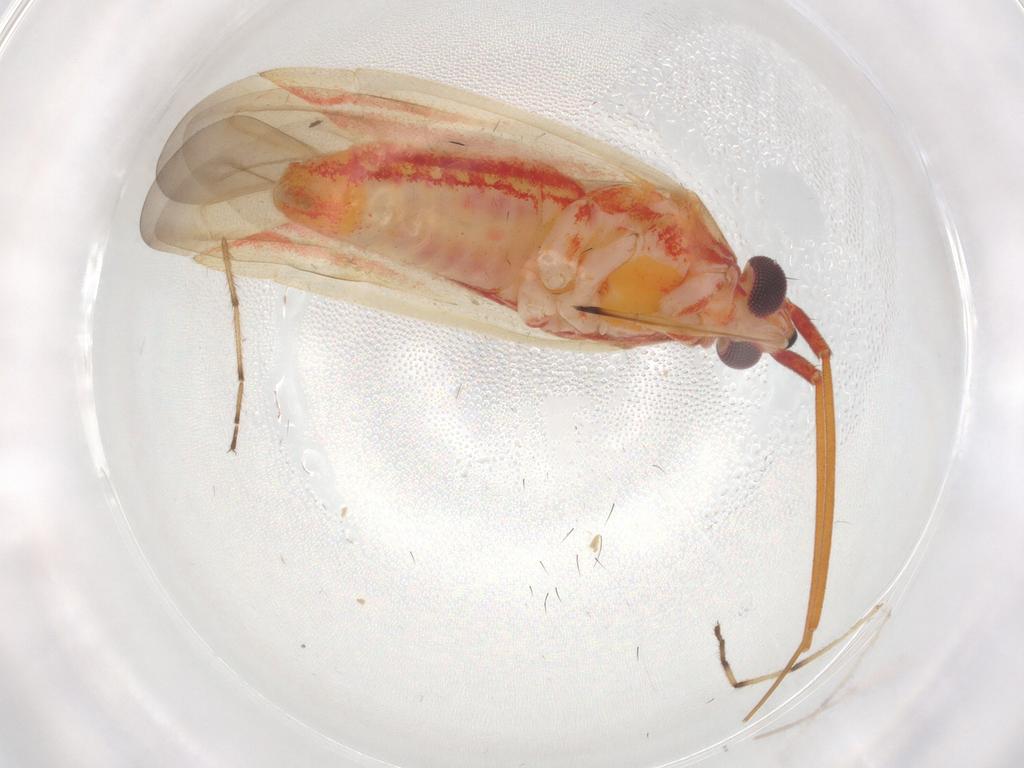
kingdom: Animalia
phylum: Arthropoda
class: Insecta
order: Hemiptera
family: Miridae
